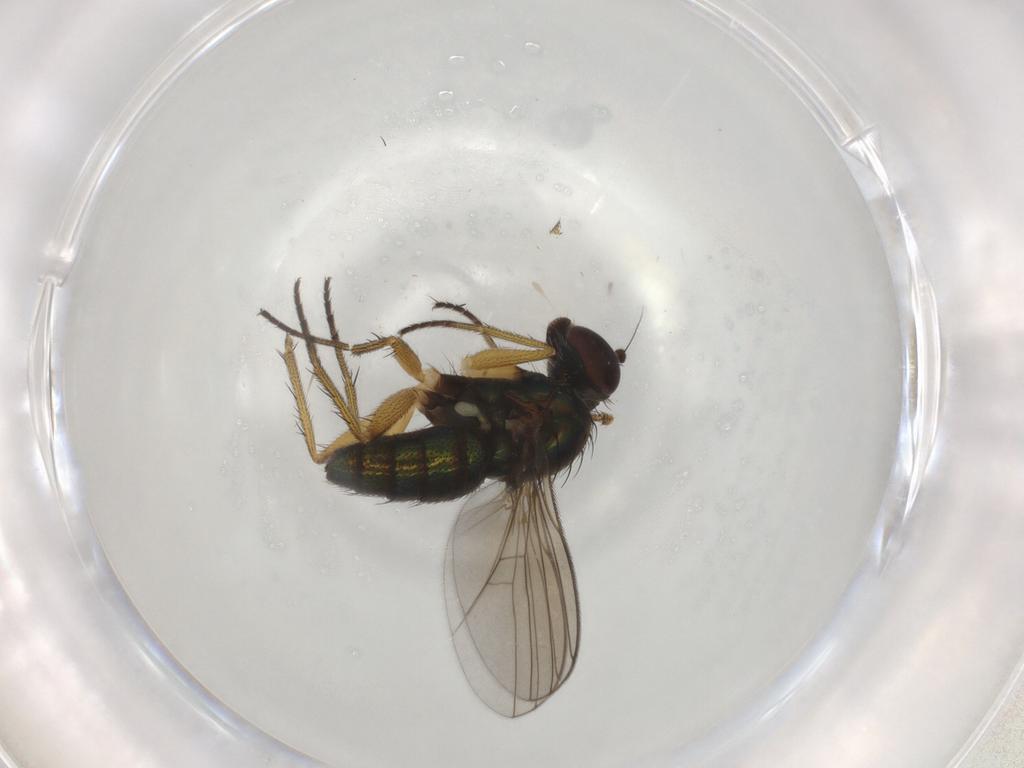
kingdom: Animalia
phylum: Arthropoda
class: Insecta
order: Diptera
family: Dolichopodidae
